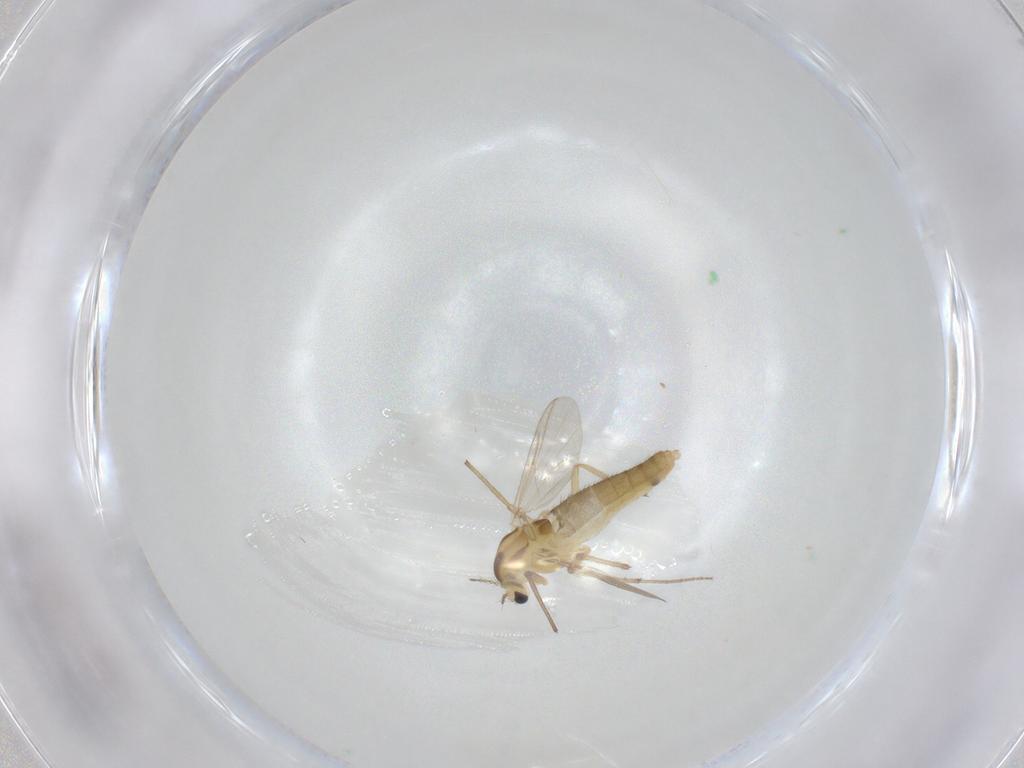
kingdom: Animalia
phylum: Arthropoda
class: Insecta
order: Diptera
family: Chironomidae
